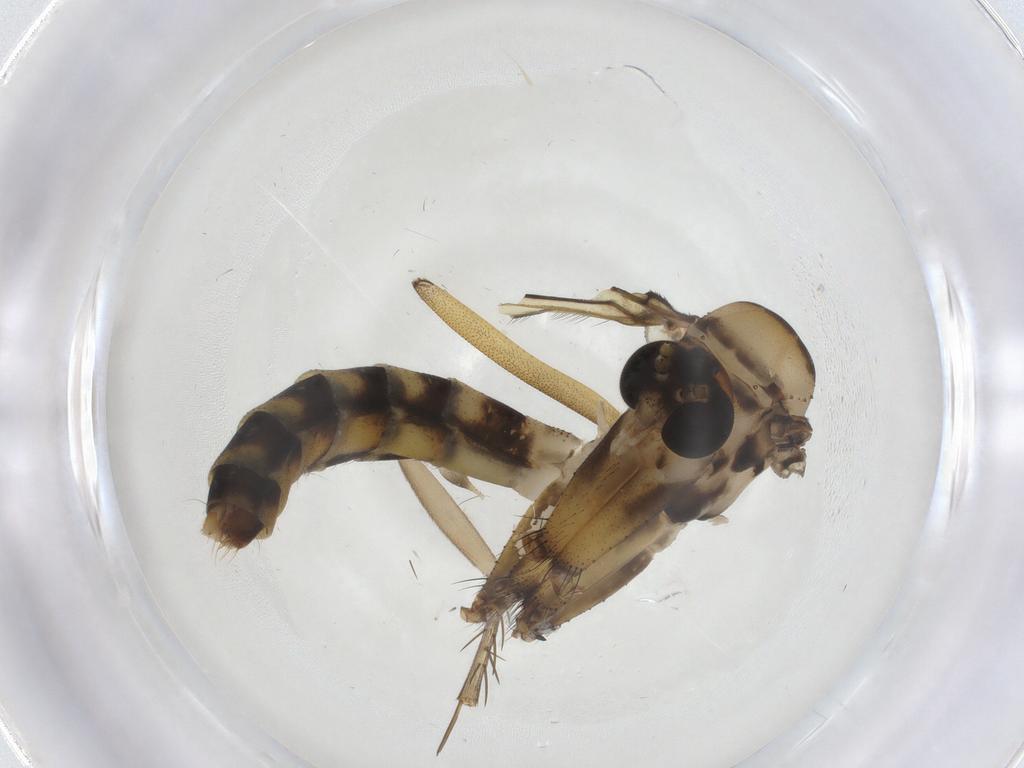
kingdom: Animalia
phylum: Arthropoda
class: Insecta
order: Diptera
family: Ditomyiidae
